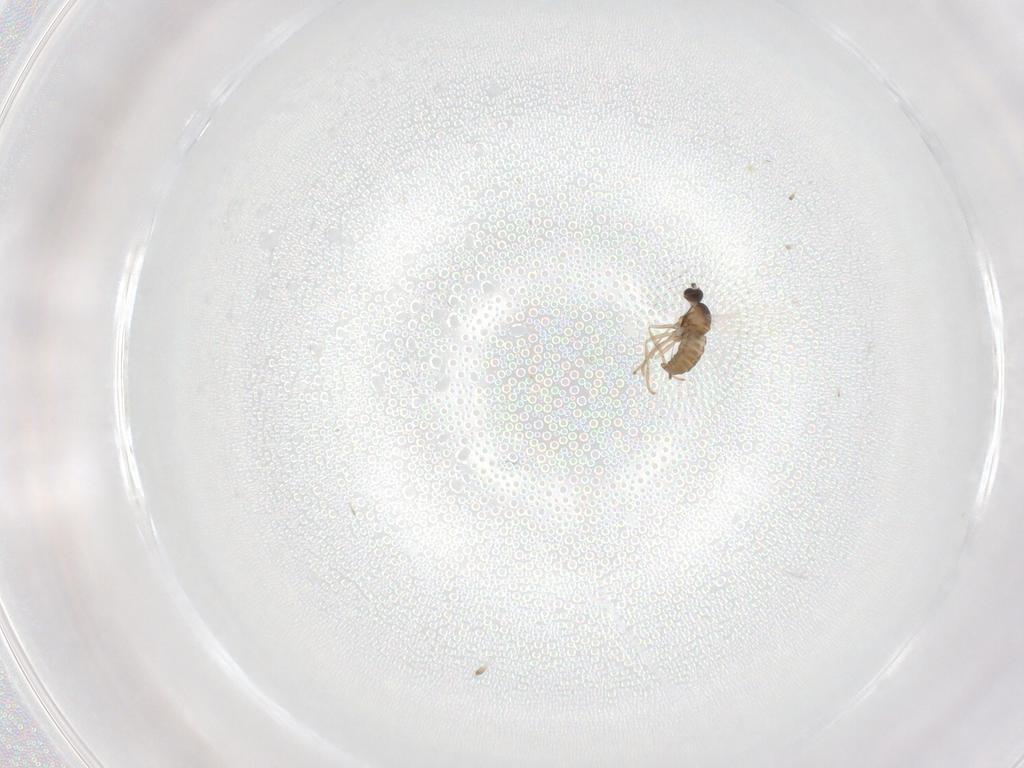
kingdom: Animalia
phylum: Arthropoda
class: Insecta
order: Diptera
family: Cecidomyiidae
